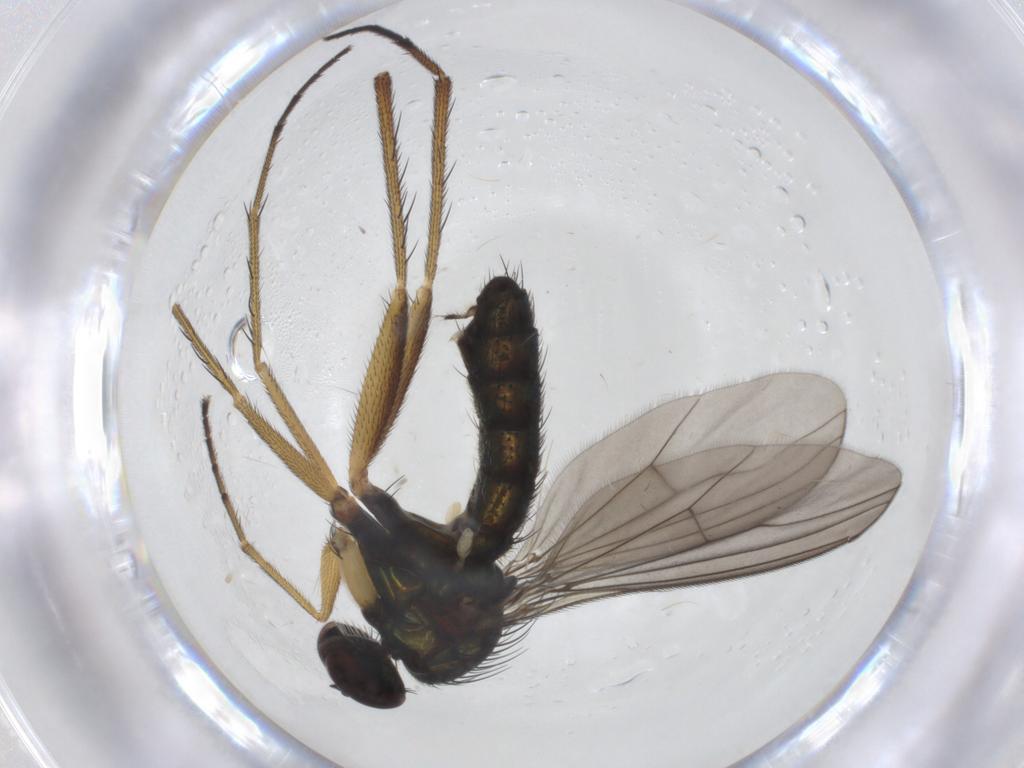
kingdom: Animalia
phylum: Arthropoda
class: Insecta
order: Diptera
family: Dolichopodidae
